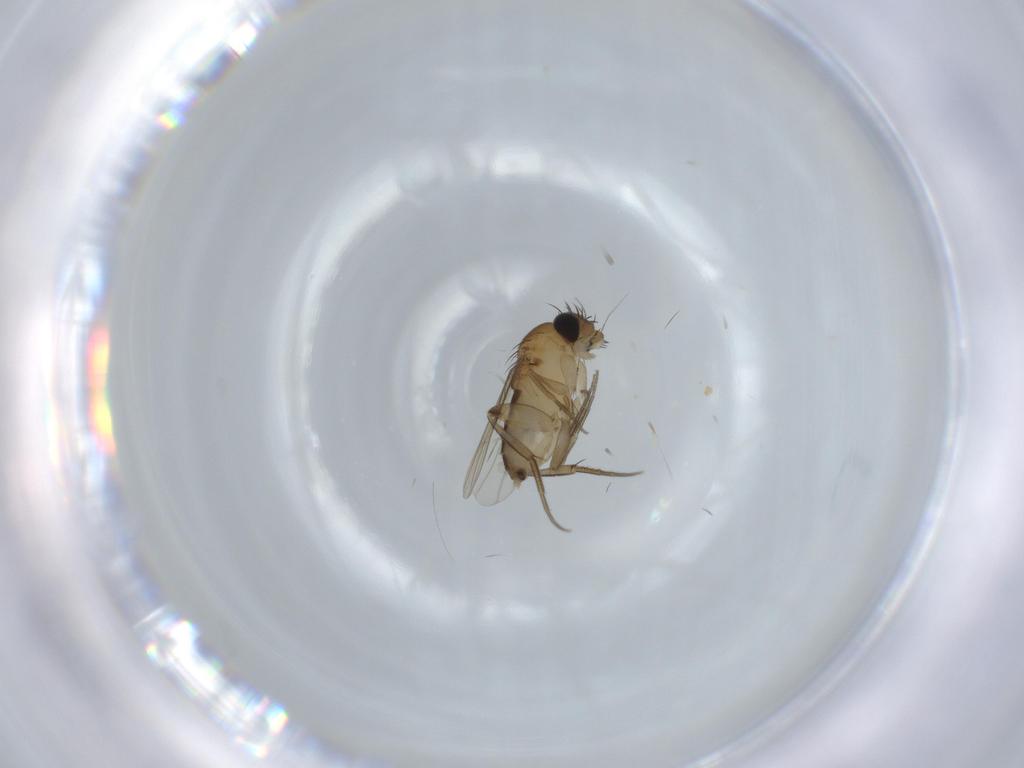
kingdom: Animalia
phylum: Arthropoda
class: Insecta
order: Diptera
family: Phoridae
